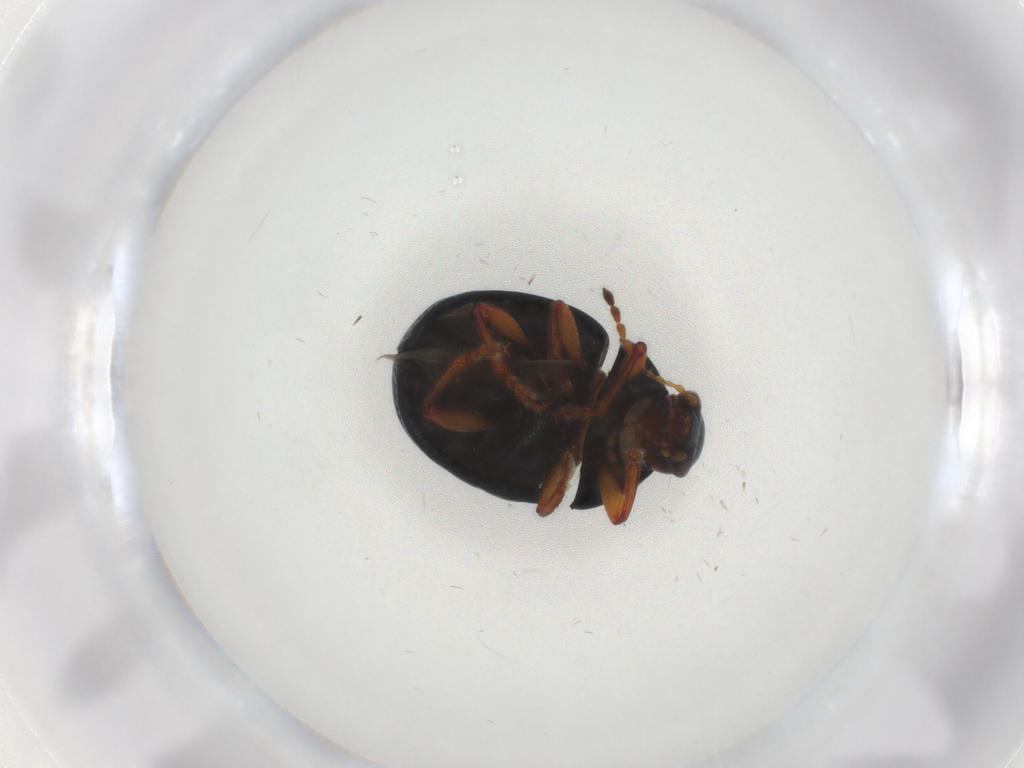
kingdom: Animalia
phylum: Arthropoda
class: Insecta
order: Coleoptera
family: Chrysomelidae
